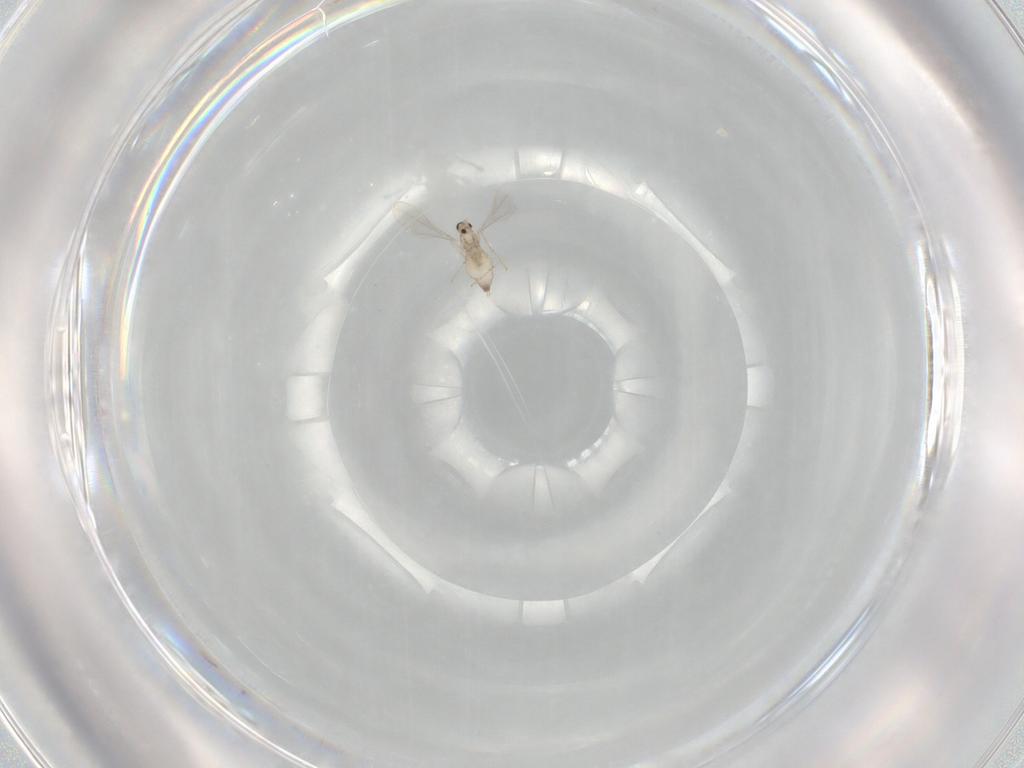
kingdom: Animalia
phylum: Arthropoda
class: Insecta
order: Diptera
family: Cecidomyiidae
